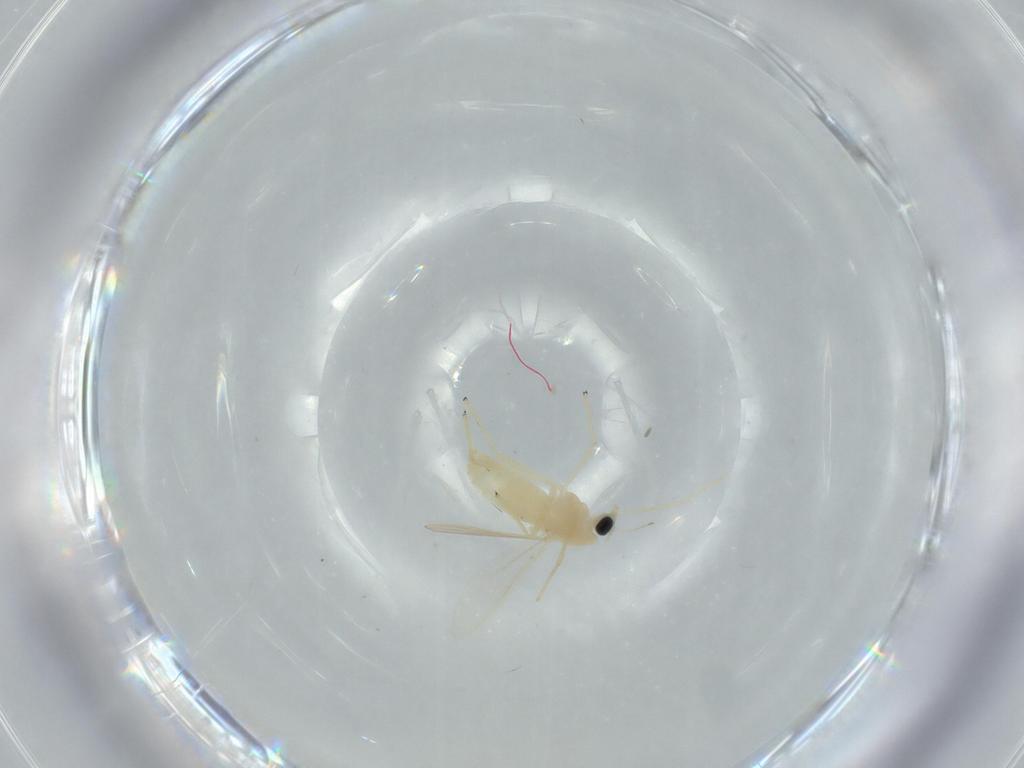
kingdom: Animalia
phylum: Arthropoda
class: Insecta
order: Diptera
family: Chironomidae
